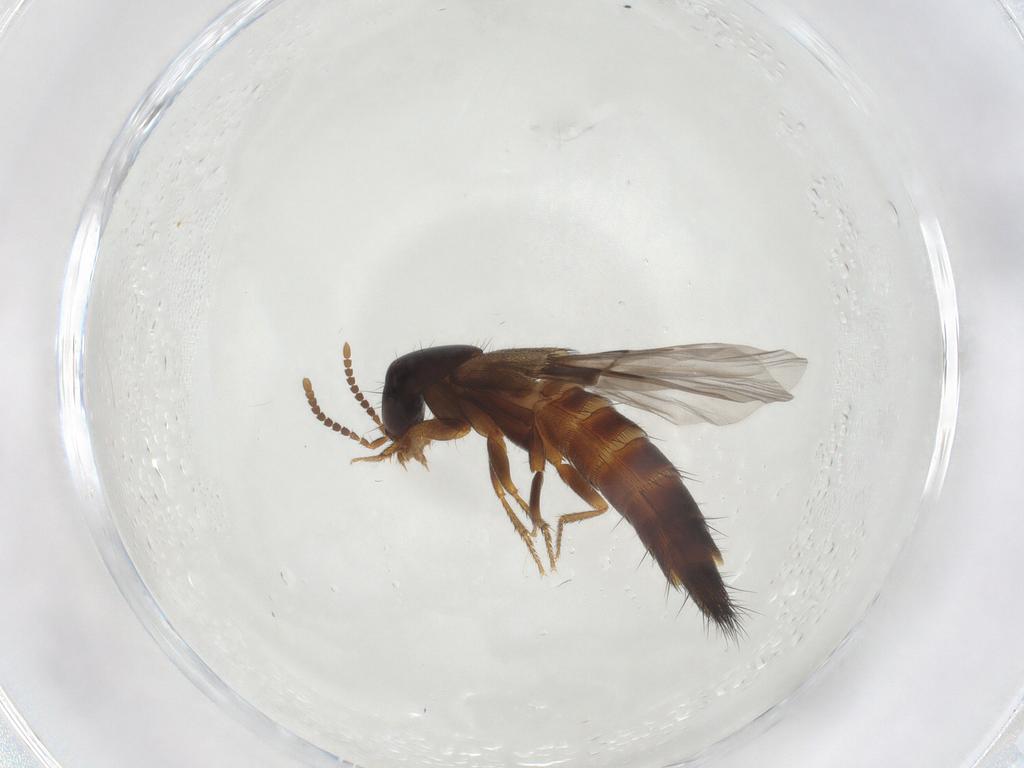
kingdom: Animalia
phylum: Arthropoda
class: Insecta
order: Coleoptera
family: Staphylinidae
